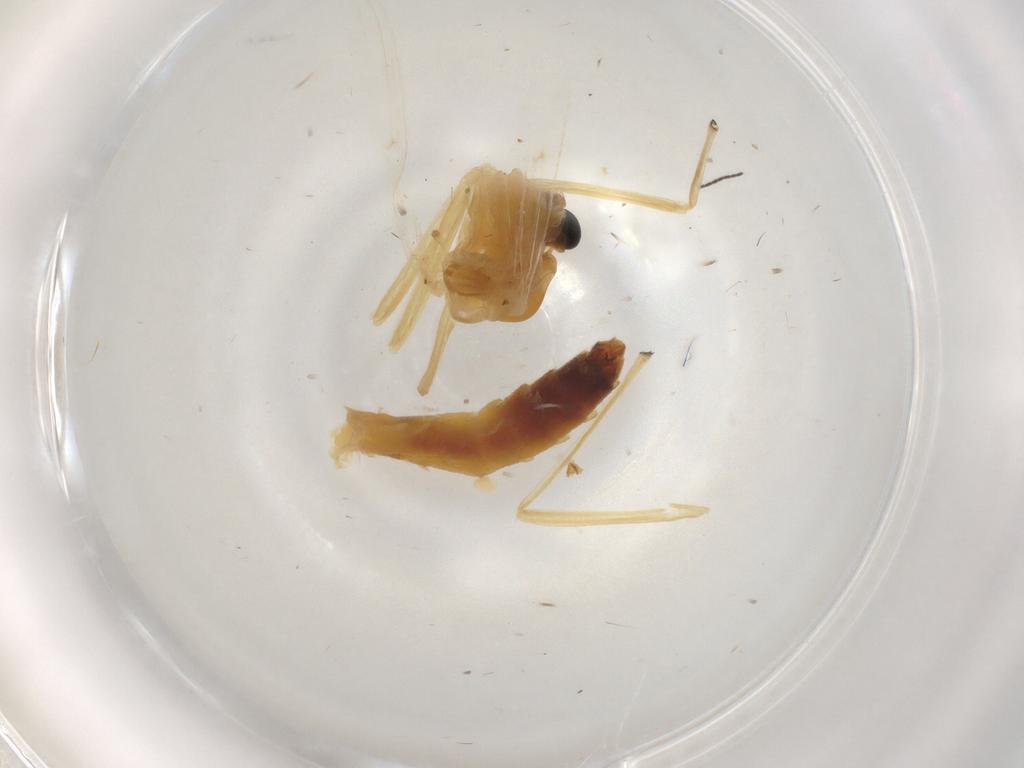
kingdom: Animalia
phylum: Arthropoda
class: Insecta
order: Diptera
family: Chironomidae
